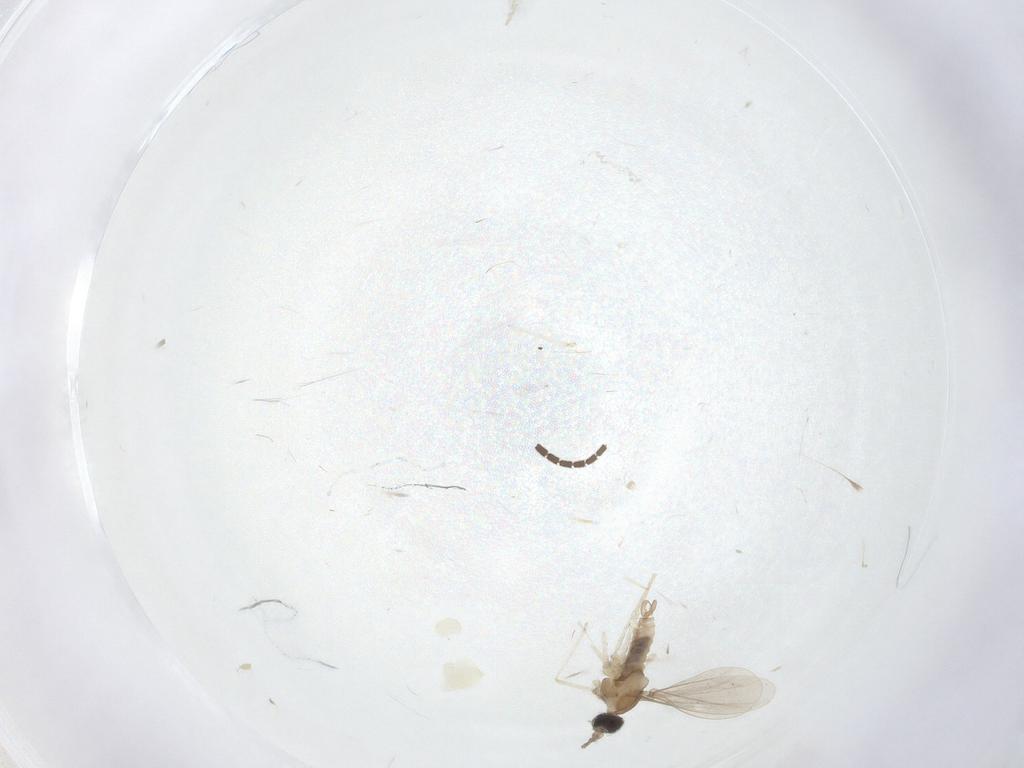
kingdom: Animalia
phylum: Arthropoda
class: Insecta
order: Diptera
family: Cecidomyiidae
